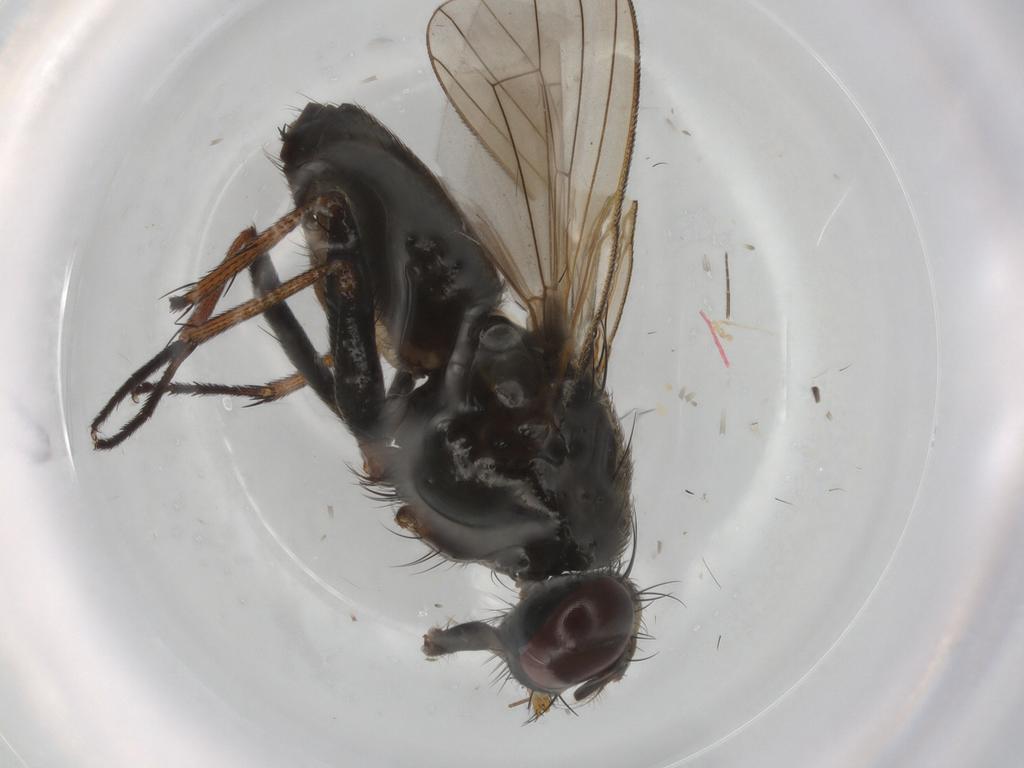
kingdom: Animalia
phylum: Arthropoda
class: Insecta
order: Diptera
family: Muscidae
